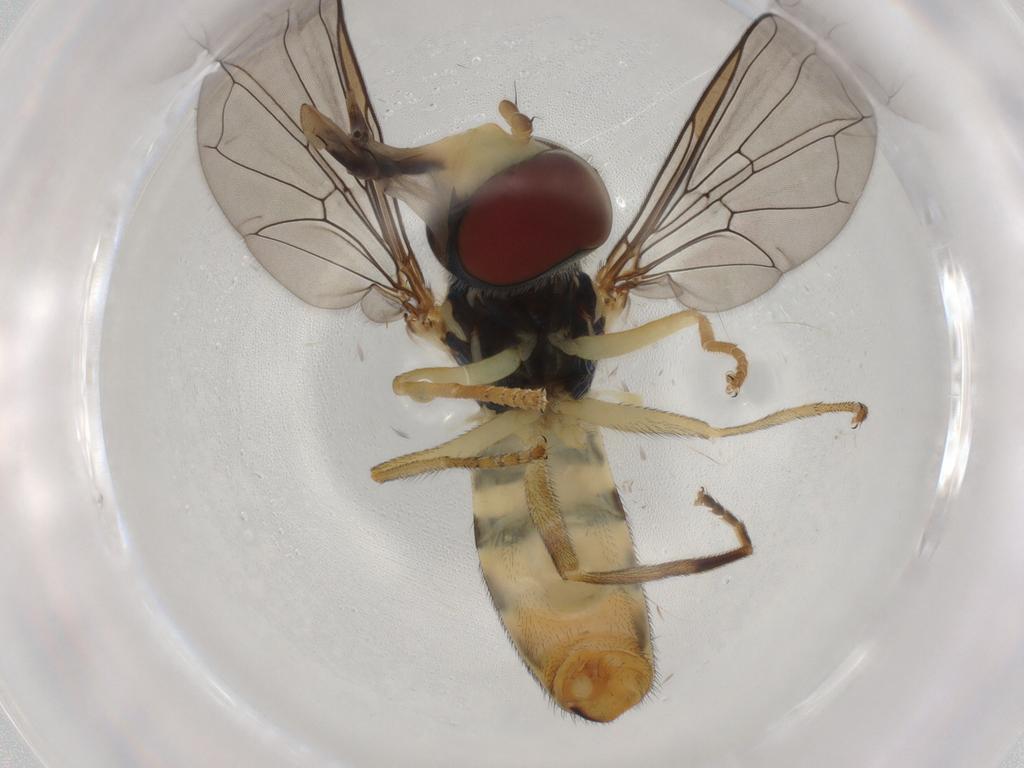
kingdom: Animalia
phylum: Arthropoda
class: Insecta
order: Diptera
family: Syrphidae
